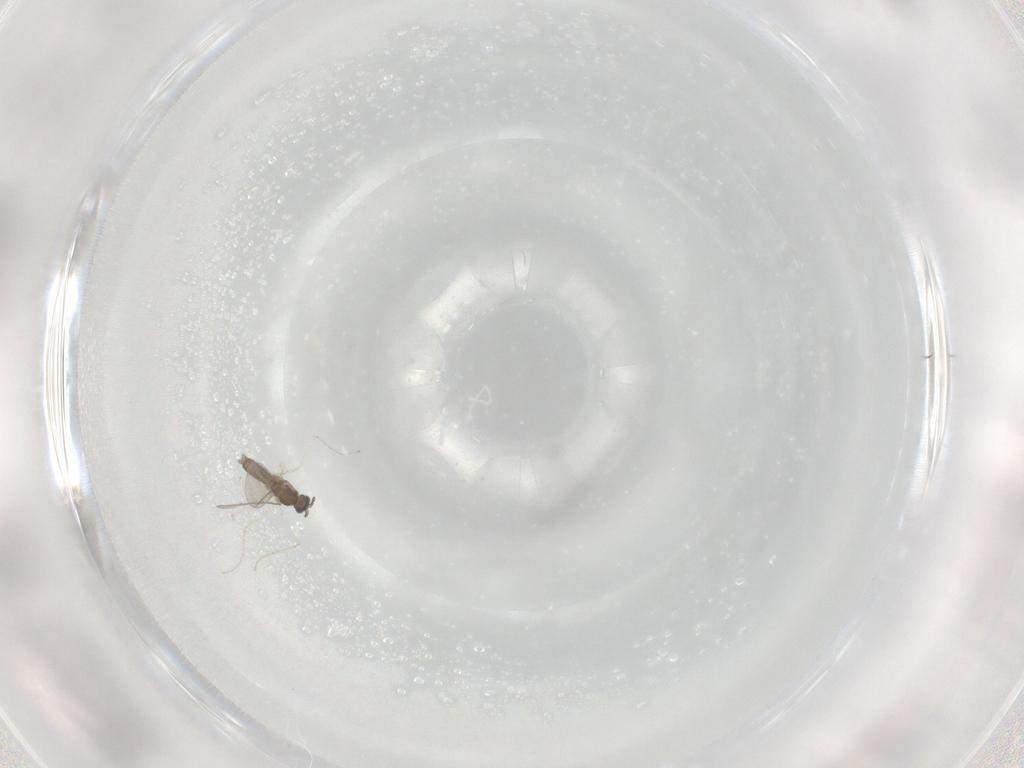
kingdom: Animalia
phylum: Arthropoda
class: Insecta
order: Diptera
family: Cecidomyiidae
